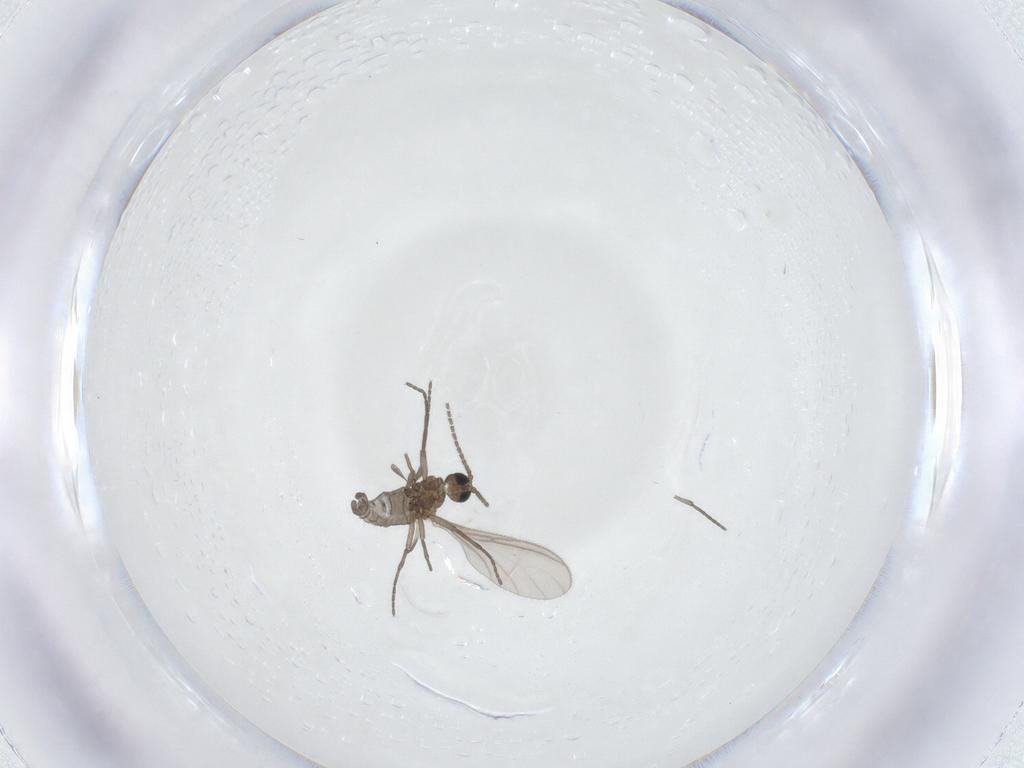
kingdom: Animalia
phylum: Arthropoda
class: Insecta
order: Diptera
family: Sciaridae
